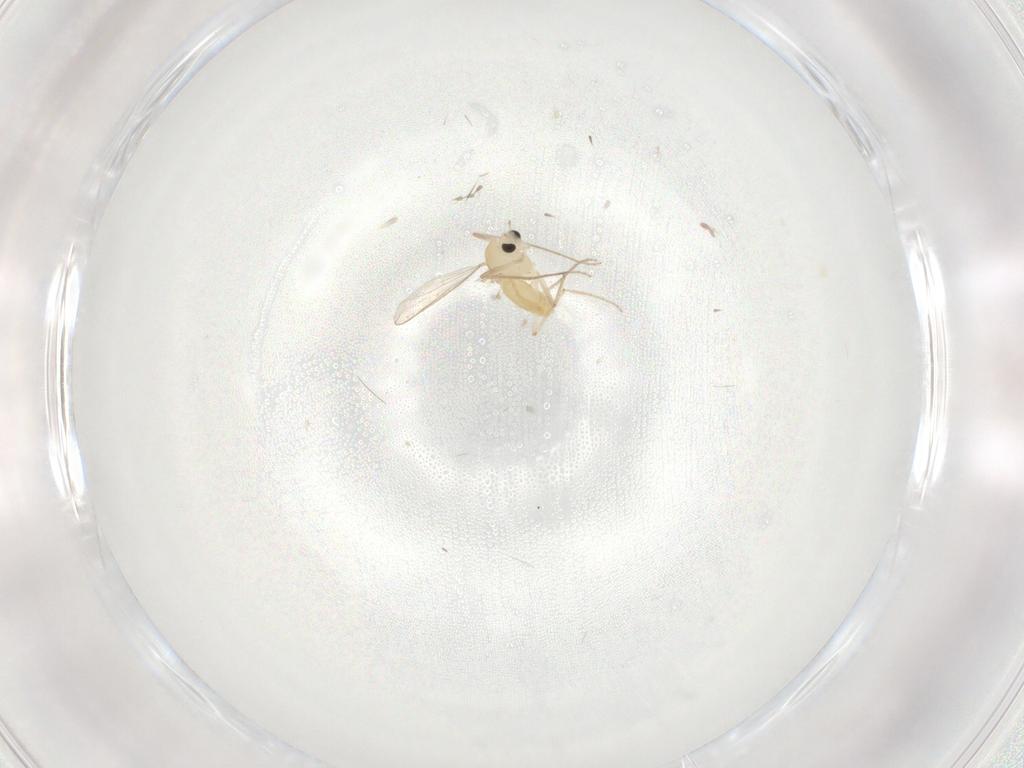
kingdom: Animalia
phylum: Arthropoda
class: Insecta
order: Diptera
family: Chironomidae
